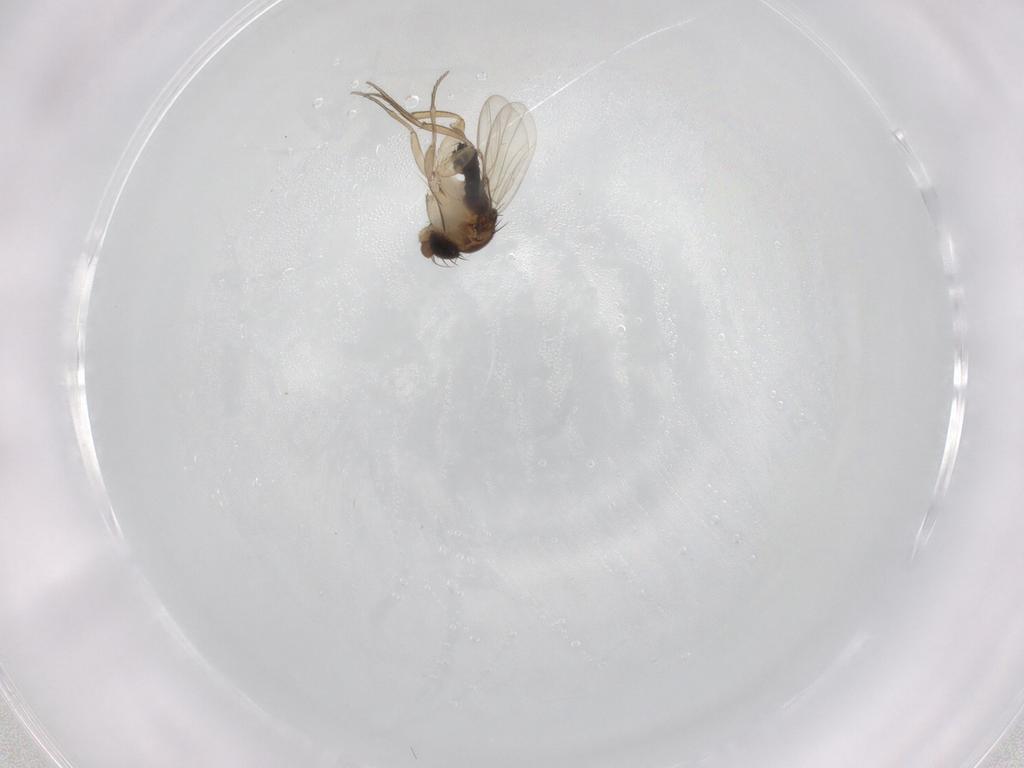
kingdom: Animalia
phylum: Arthropoda
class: Insecta
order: Diptera
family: Phoridae
